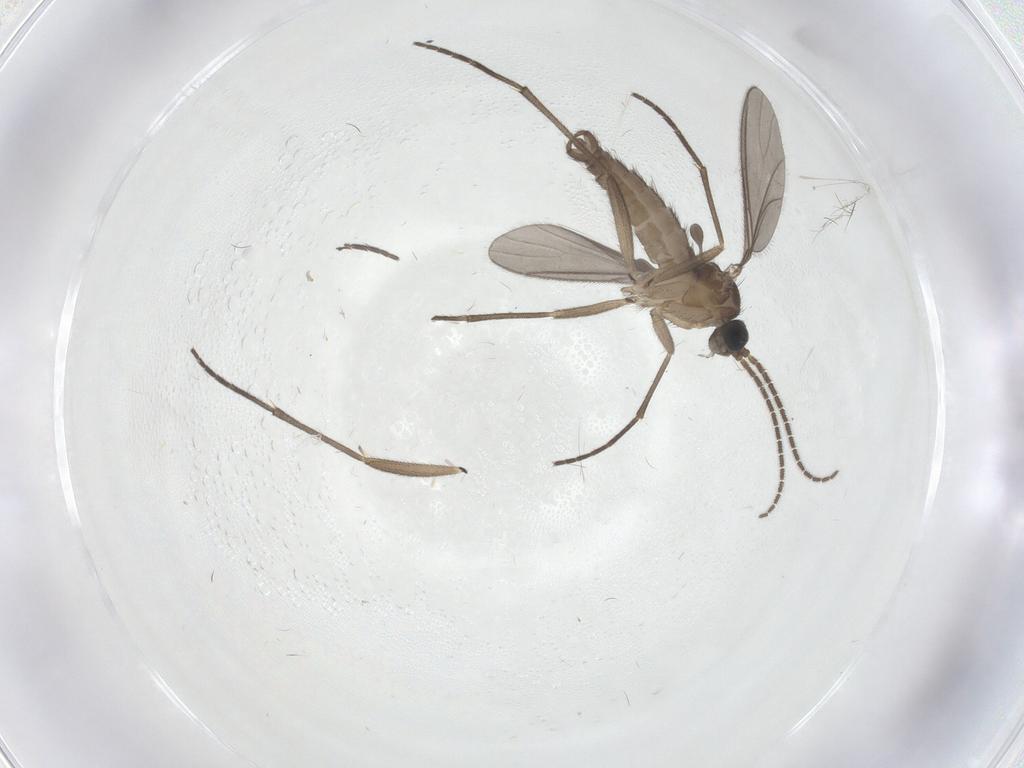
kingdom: Animalia
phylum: Arthropoda
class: Insecta
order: Diptera
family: Sciaridae
